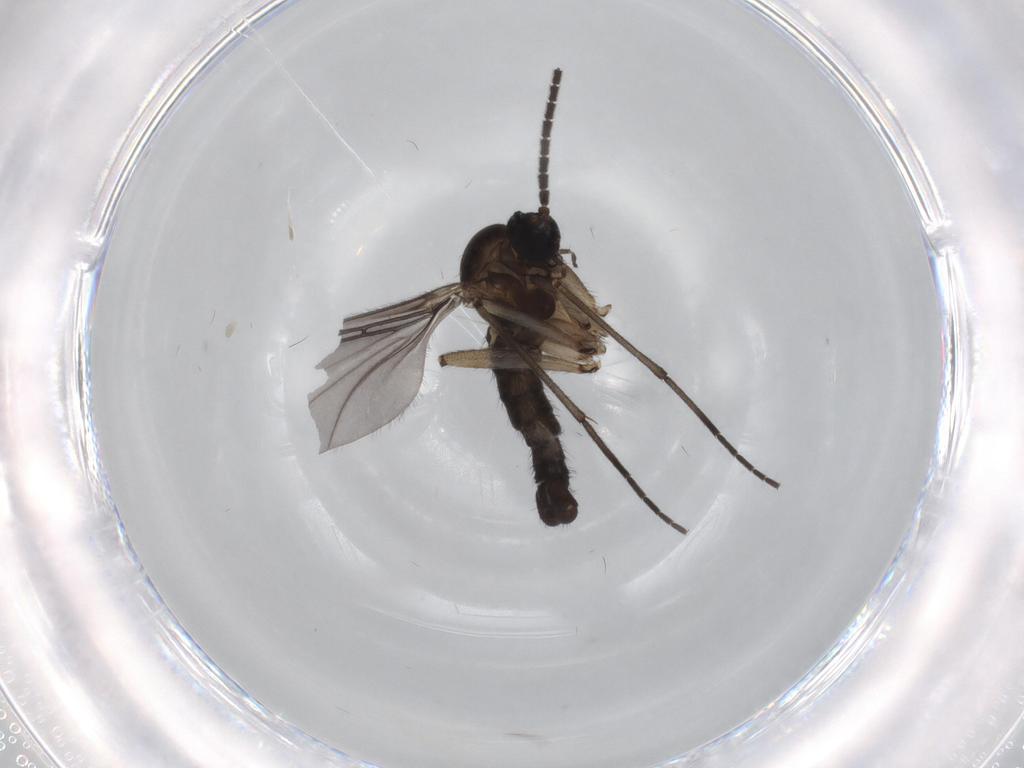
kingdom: Animalia
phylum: Arthropoda
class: Insecta
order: Diptera
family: Sciaridae
